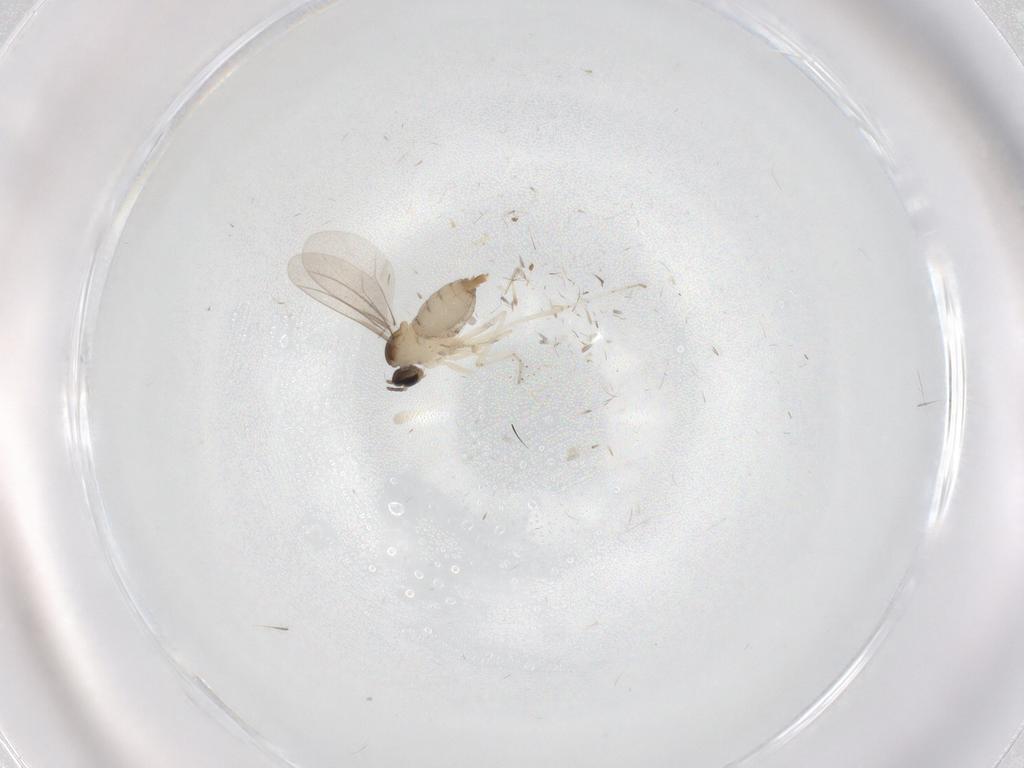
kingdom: Animalia
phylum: Arthropoda
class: Insecta
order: Diptera
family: Cecidomyiidae
